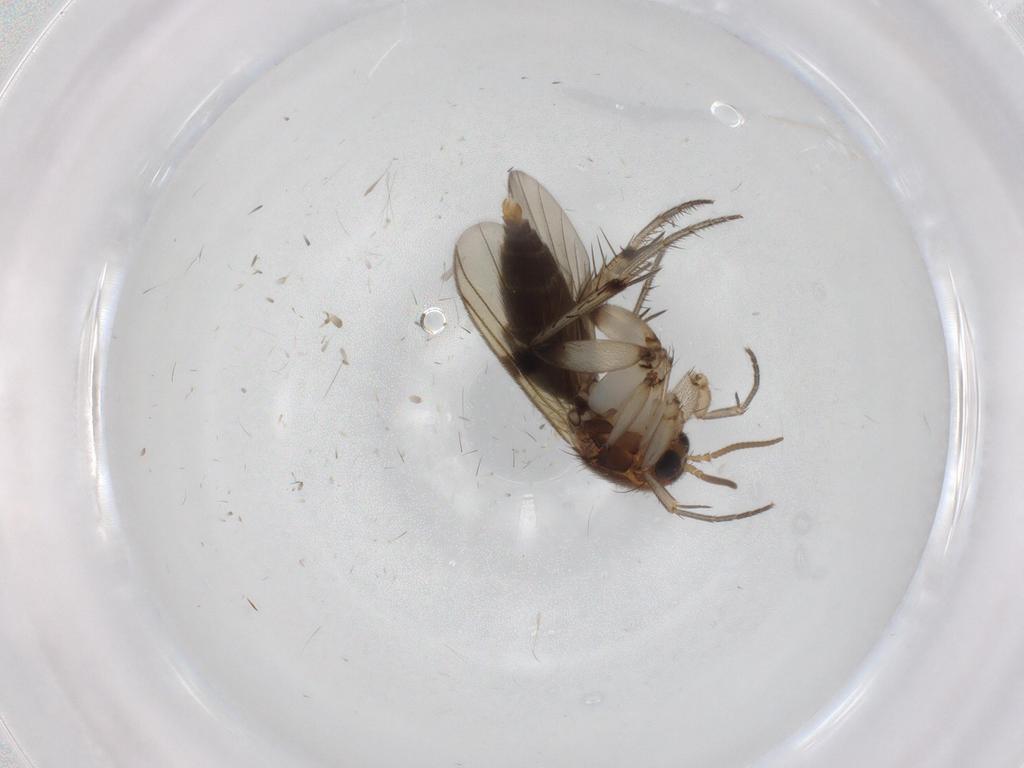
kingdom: Animalia
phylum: Arthropoda
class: Insecta
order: Diptera
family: Mycetophilidae
